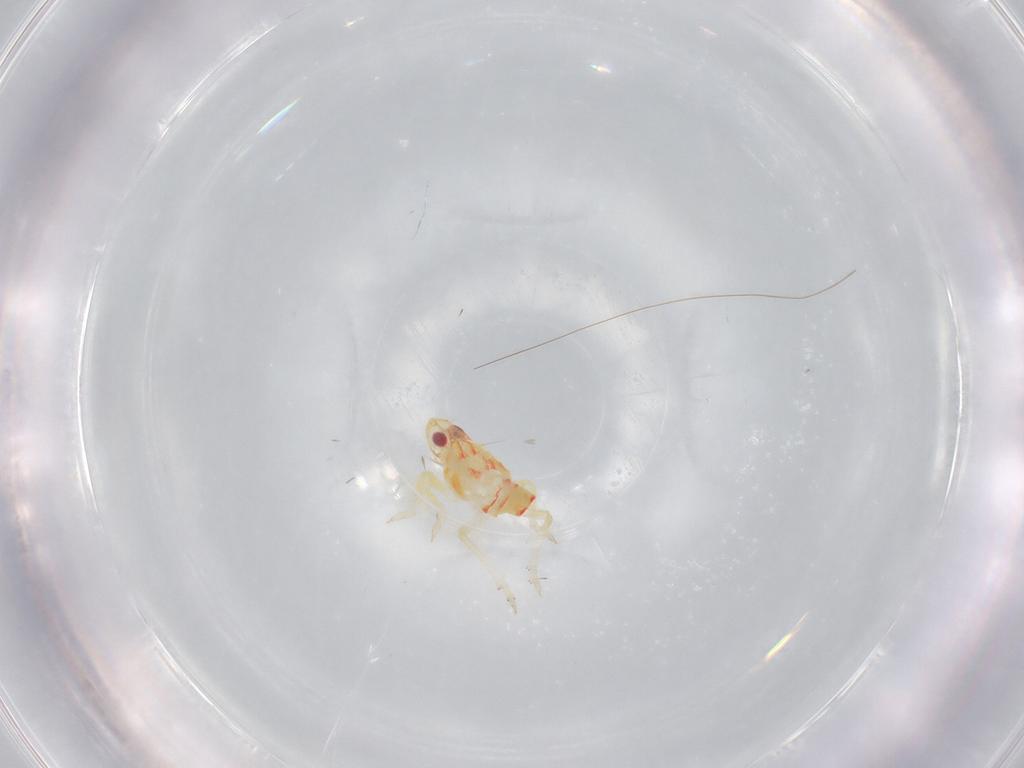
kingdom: Animalia
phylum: Arthropoda
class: Insecta
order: Hemiptera
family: Tropiduchidae
